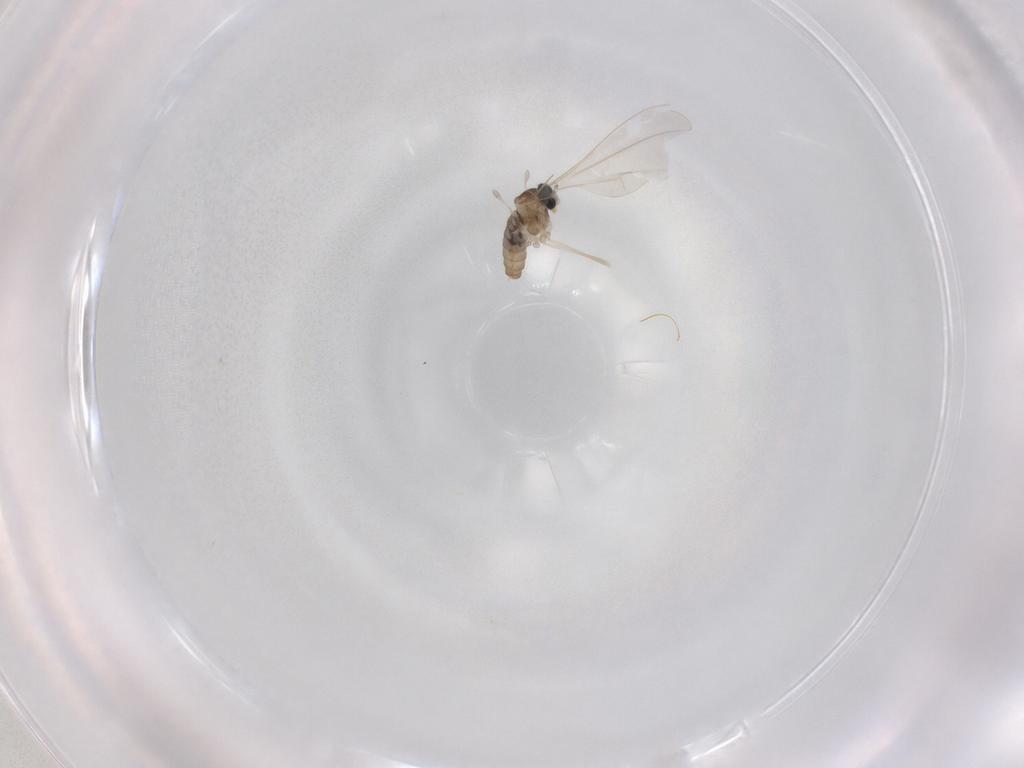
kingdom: Animalia
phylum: Arthropoda
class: Insecta
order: Diptera
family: Cecidomyiidae
